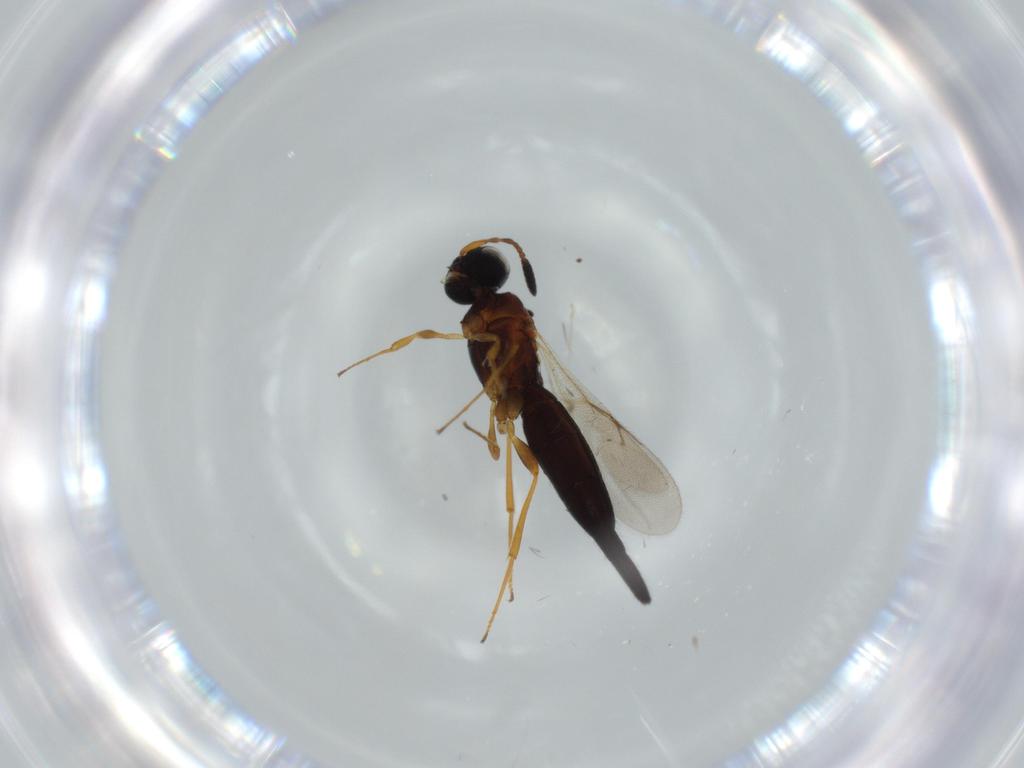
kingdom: Animalia
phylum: Arthropoda
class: Insecta
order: Hymenoptera
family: Scelionidae
